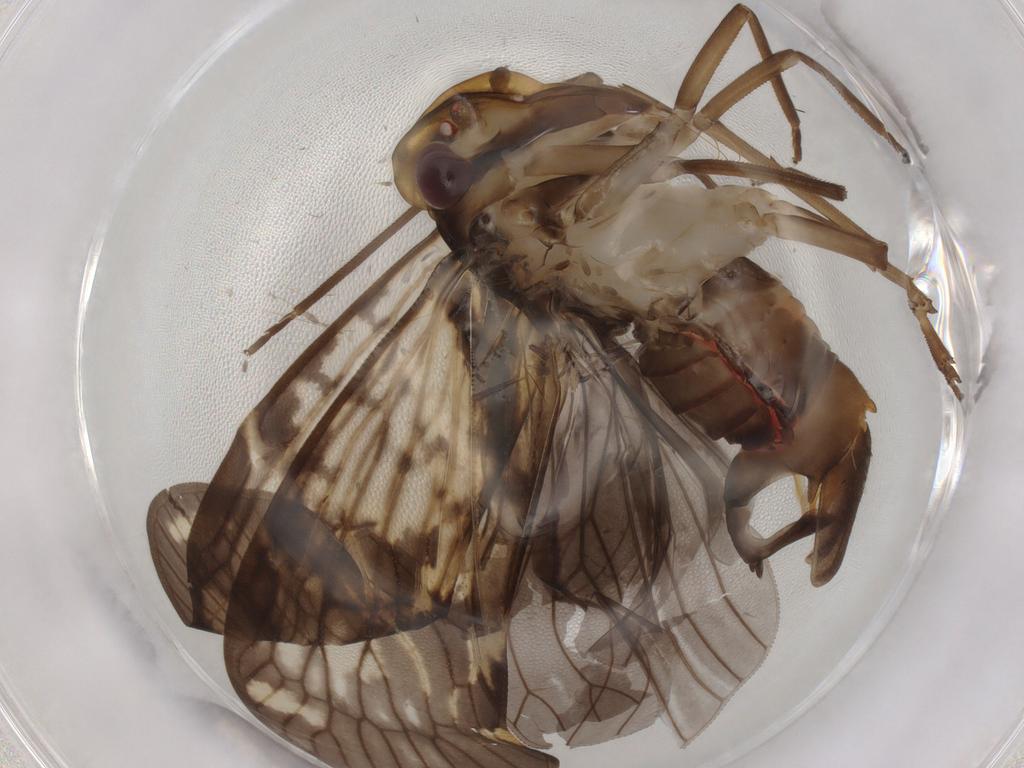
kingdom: Animalia
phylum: Arthropoda
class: Insecta
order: Hemiptera
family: Cixiidae
